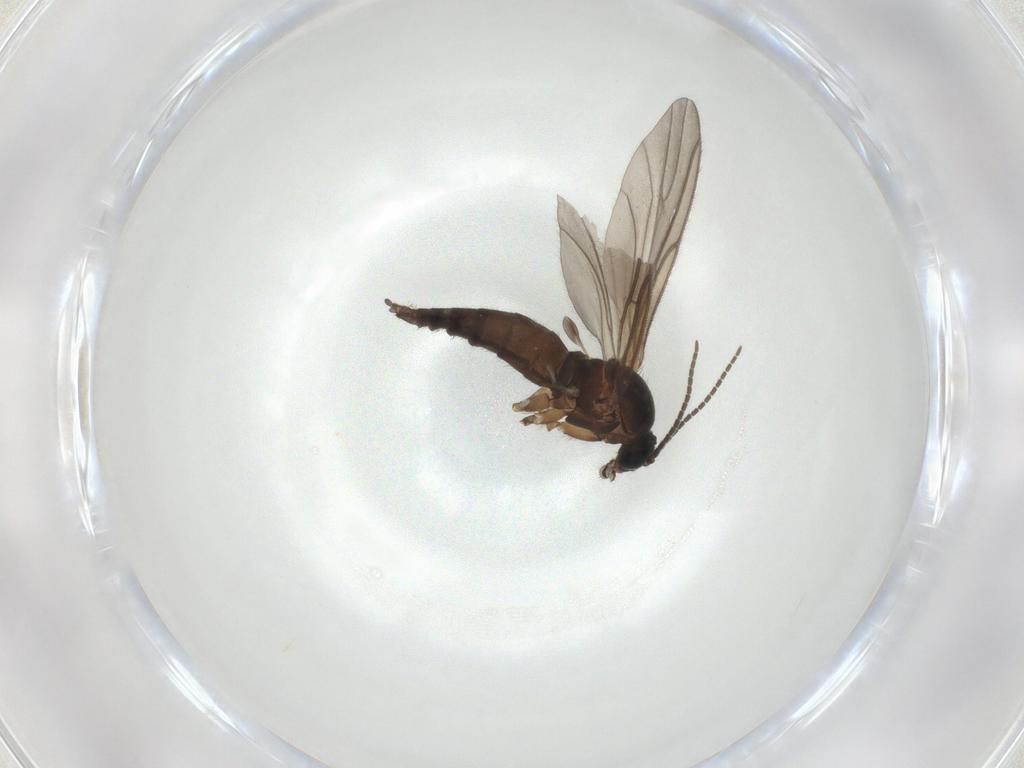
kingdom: Animalia
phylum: Arthropoda
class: Insecta
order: Diptera
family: Sciaridae
